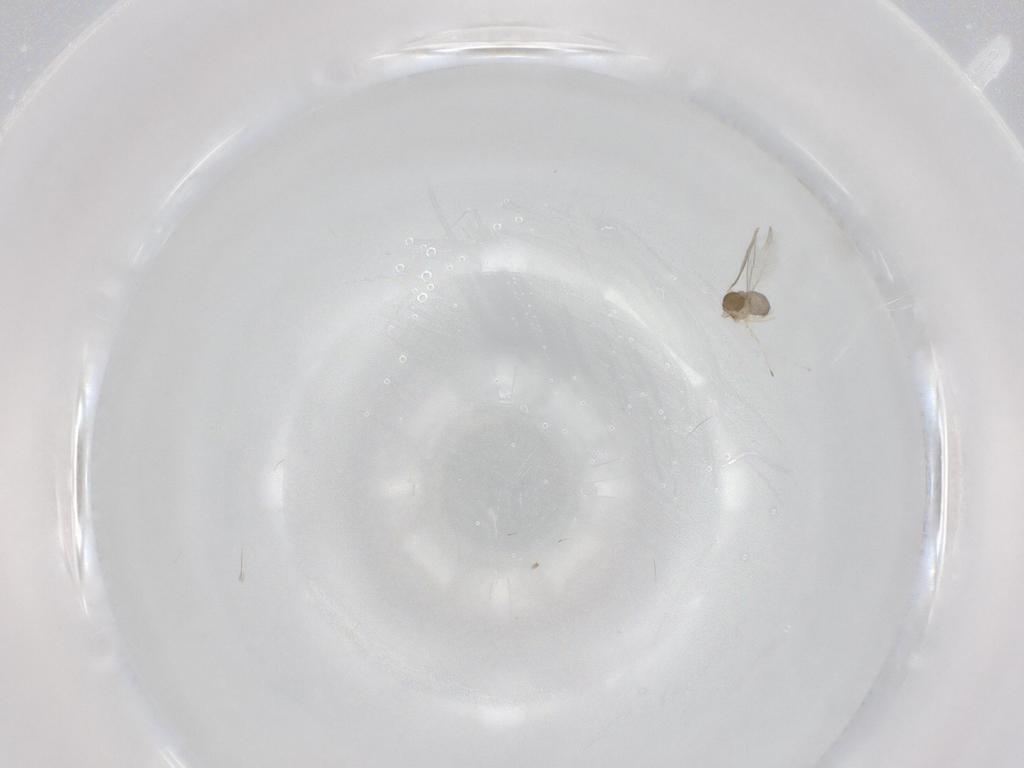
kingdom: Animalia
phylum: Arthropoda
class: Insecta
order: Diptera
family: Cecidomyiidae
